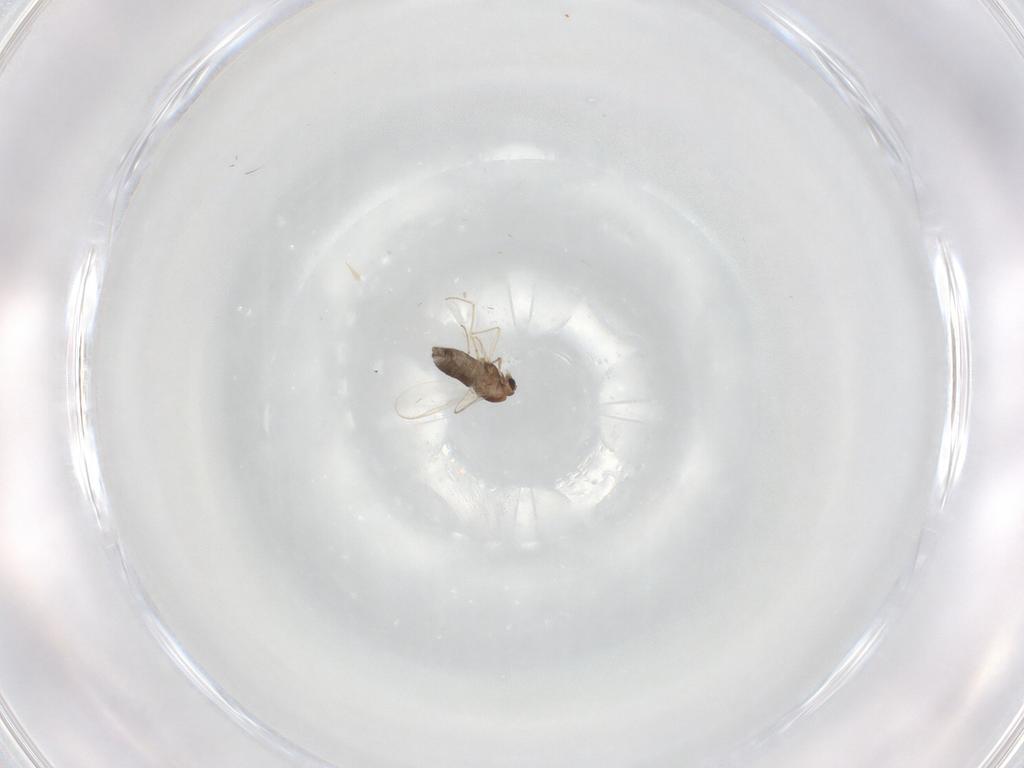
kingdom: Animalia
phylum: Arthropoda
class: Insecta
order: Diptera
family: Chironomidae
